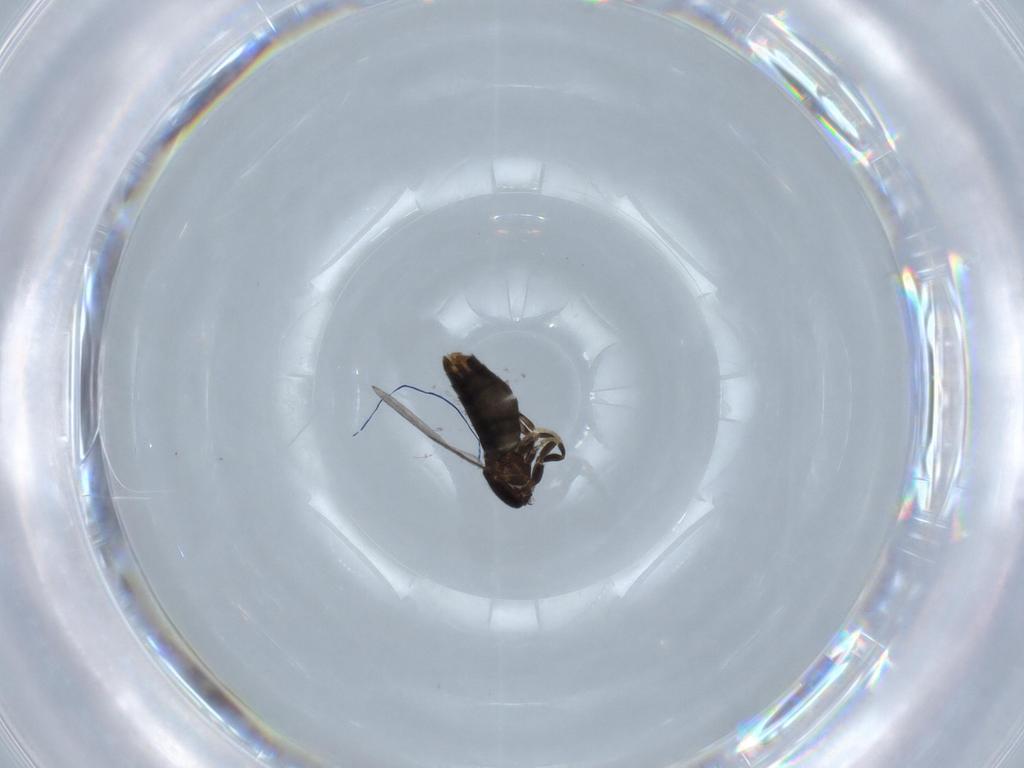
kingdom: Animalia
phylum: Arthropoda
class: Insecta
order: Diptera
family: Scatopsidae
